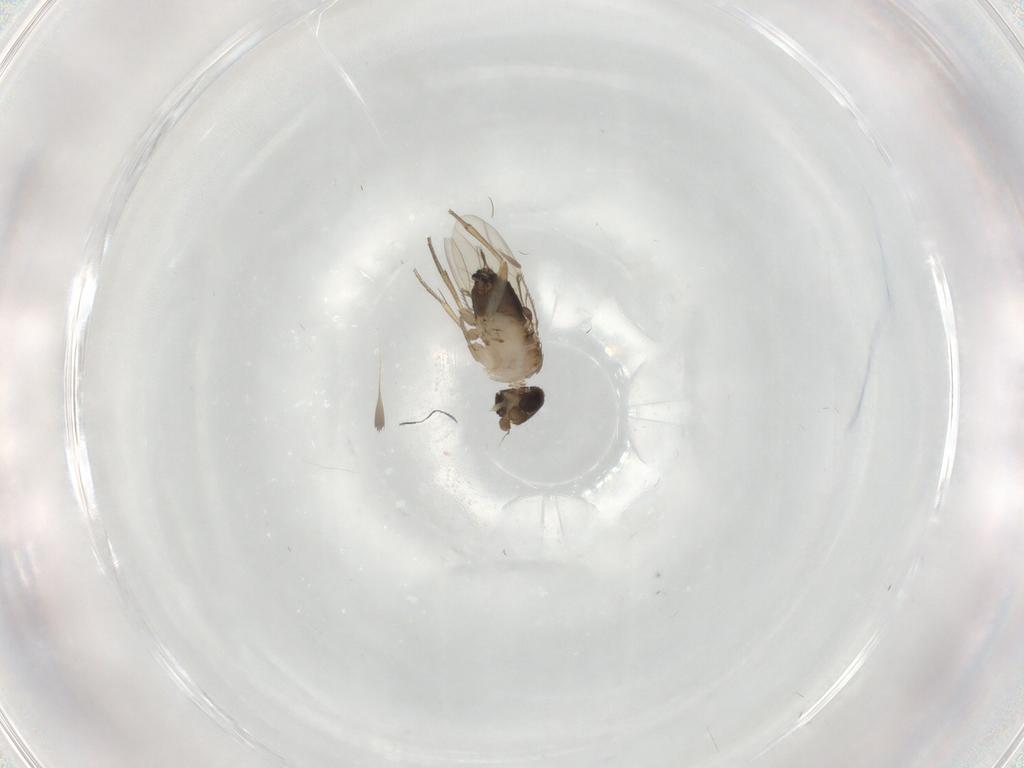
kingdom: Animalia
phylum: Arthropoda
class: Insecta
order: Diptera
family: Phoridae
